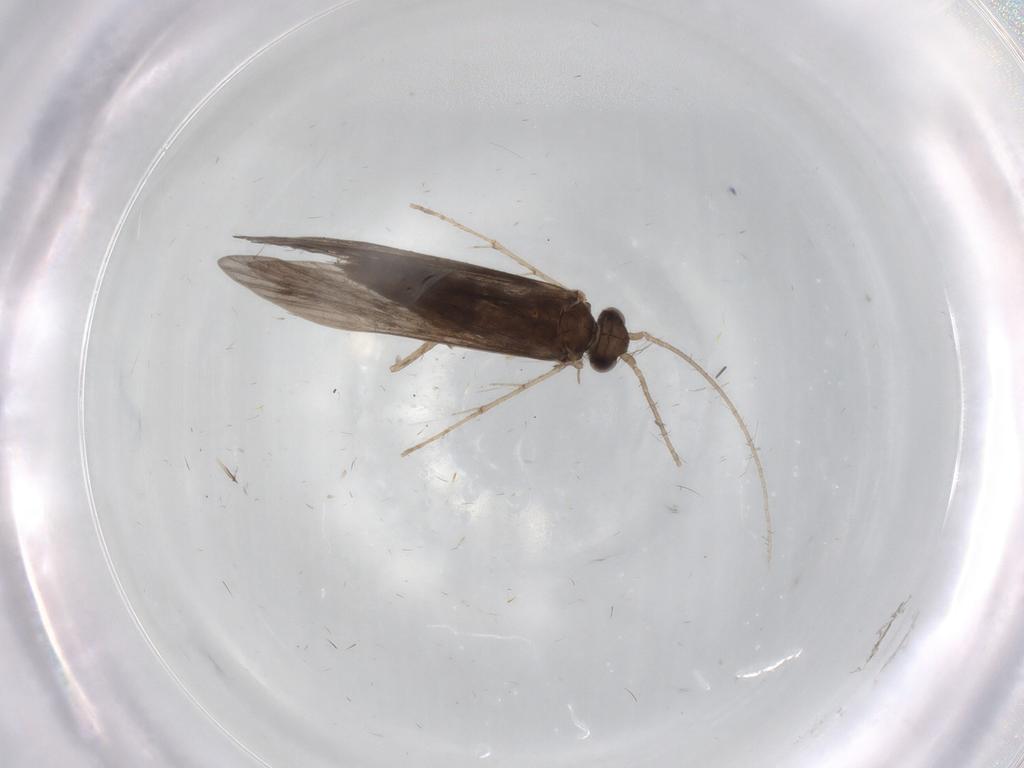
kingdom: Animalia
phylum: Arthropoda
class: Insecta
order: Trichoptera
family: Xiphocentronidae
